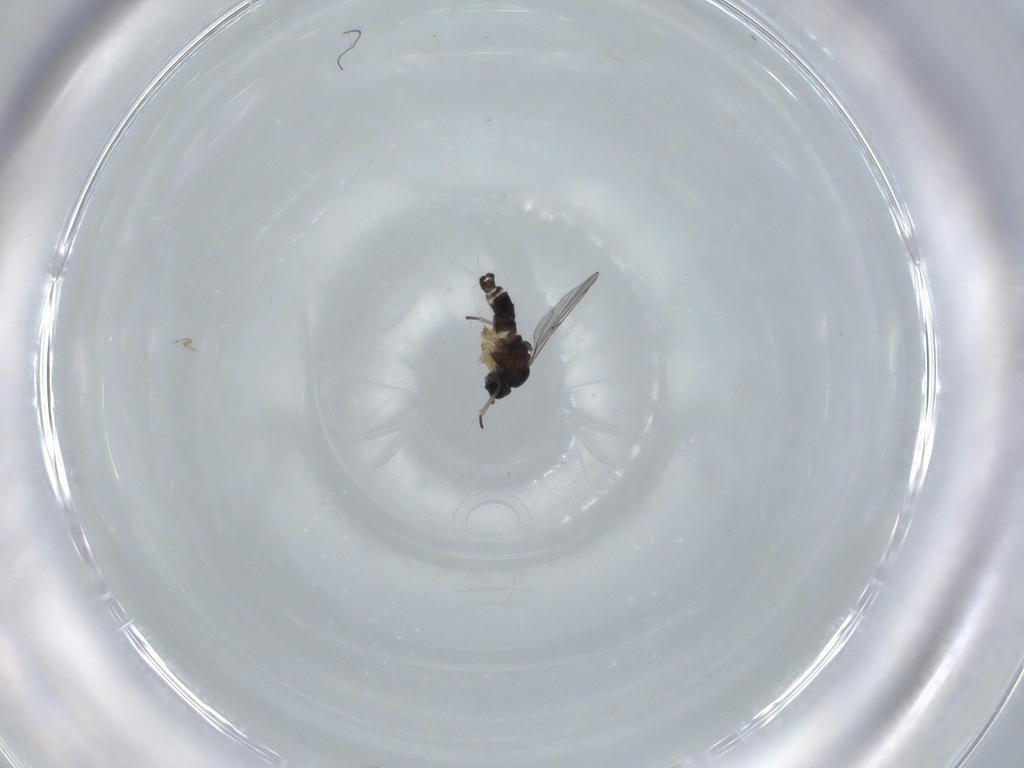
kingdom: Animalia
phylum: Arthropoda
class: Insecta
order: Diptera
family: Sciaridae
